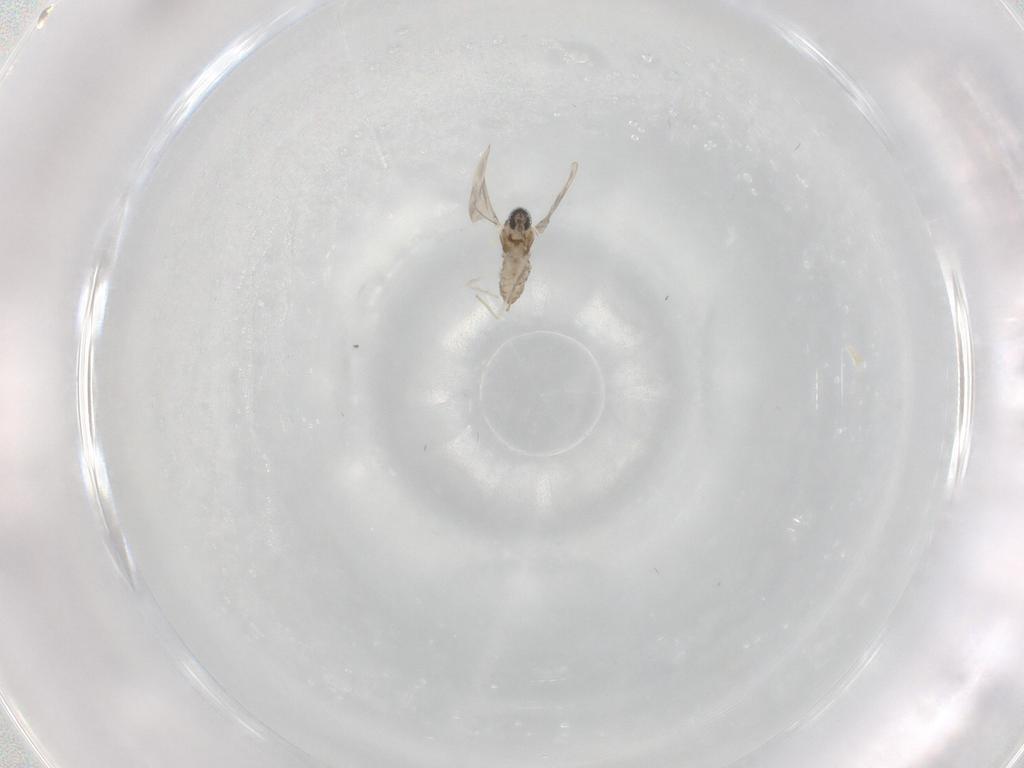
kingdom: Animalia
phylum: Arthropoda
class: Insecta
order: Diptera
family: Cecidomyiidae
